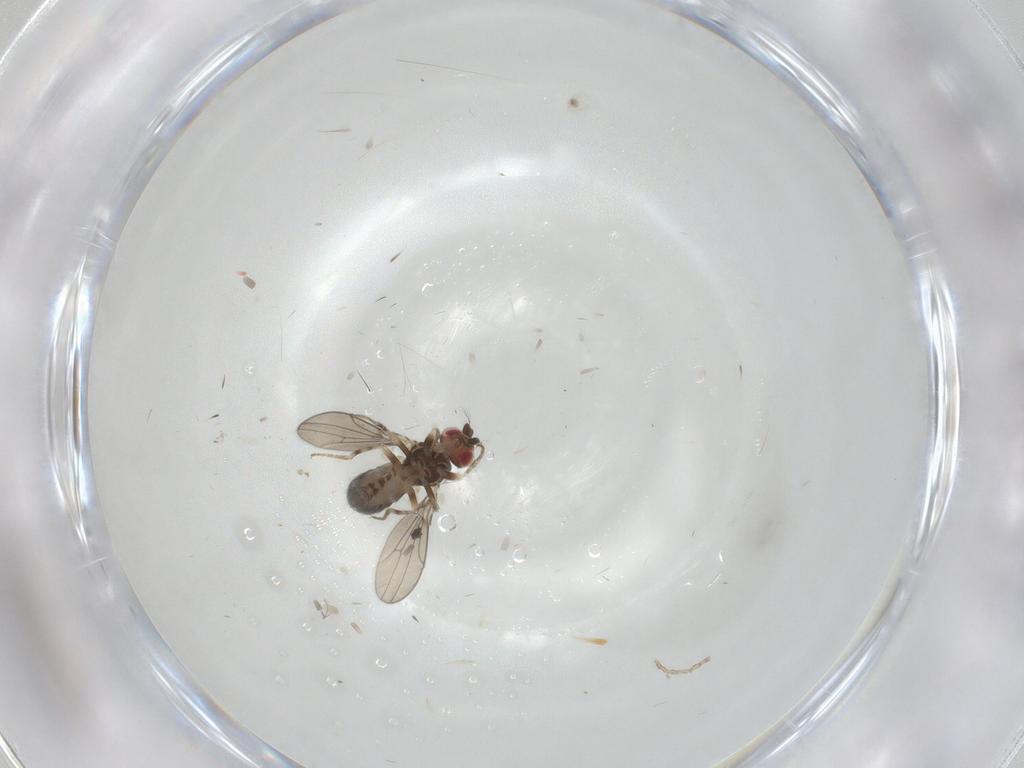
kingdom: Animalia
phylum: Arthropoda
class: Insecta
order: Diptera
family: Drosophilidae
